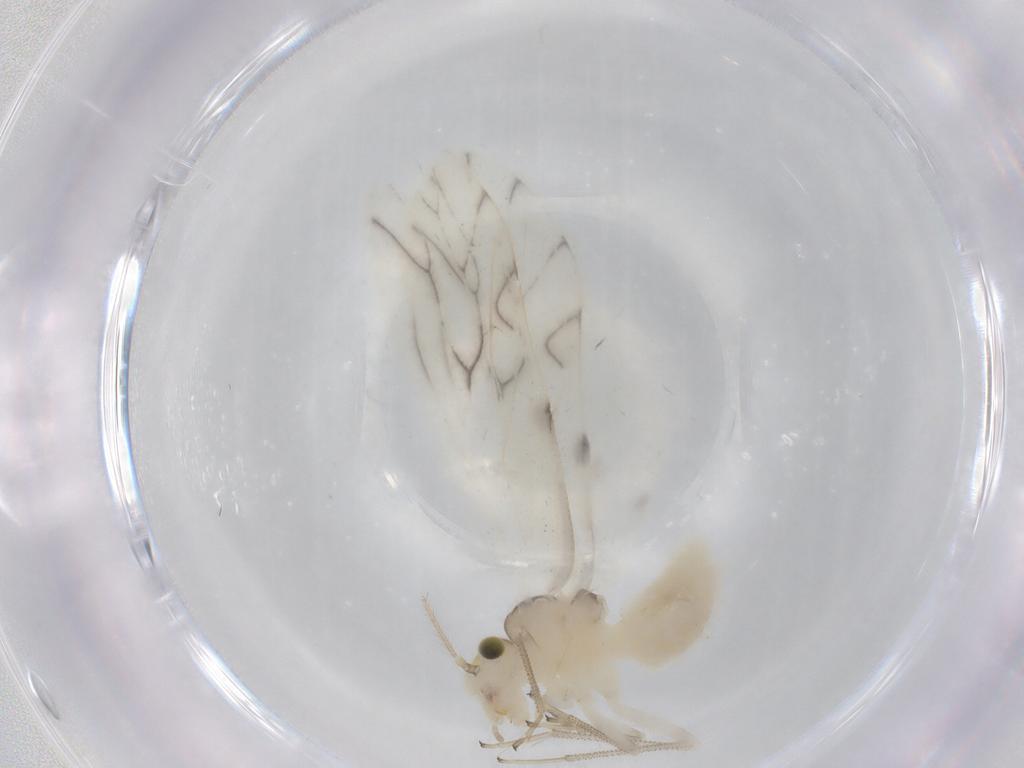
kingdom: Animalia
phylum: Arthropoda
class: Insecta
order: Psocodea
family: Caeciliusidae
